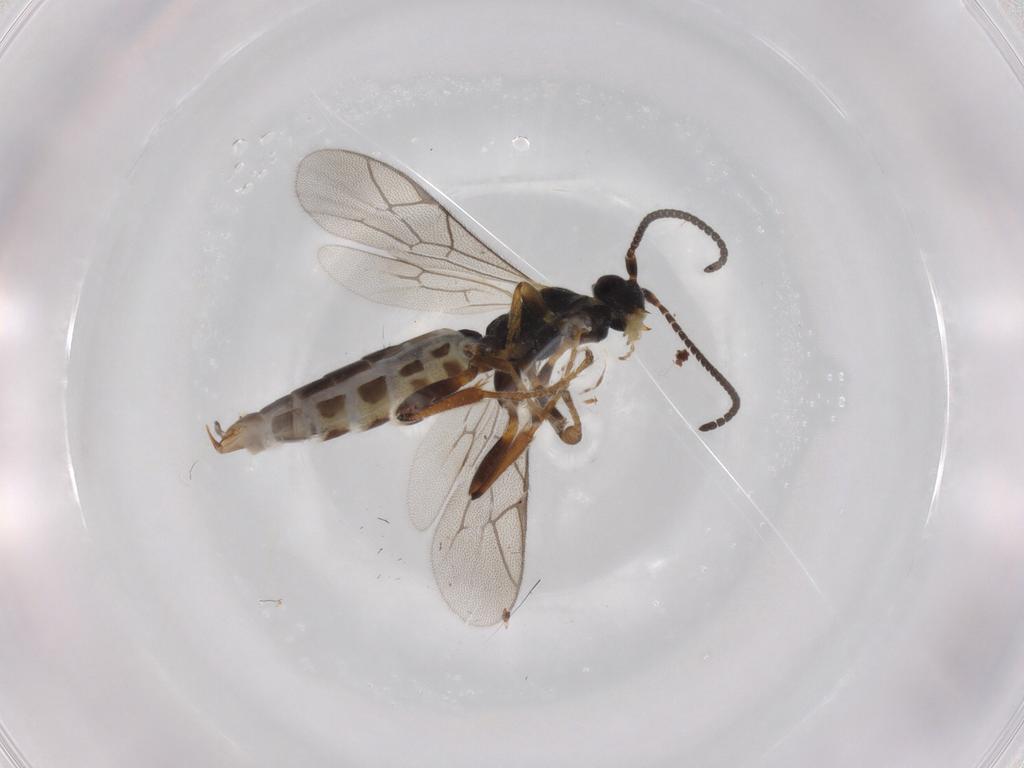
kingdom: Animalia
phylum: Arthropoda
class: Insecta
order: Hymenoptera
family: Ichneumonidae
